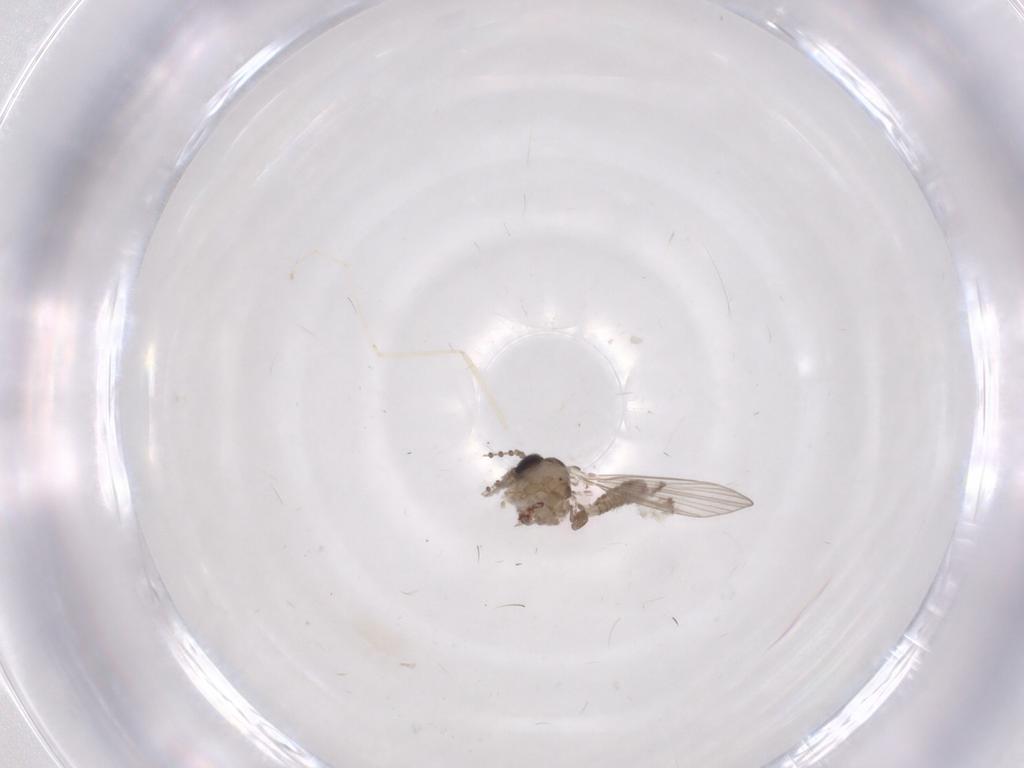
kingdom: Animalia
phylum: Arthropoda
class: Insecta
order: Diptera
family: Psychodidae
